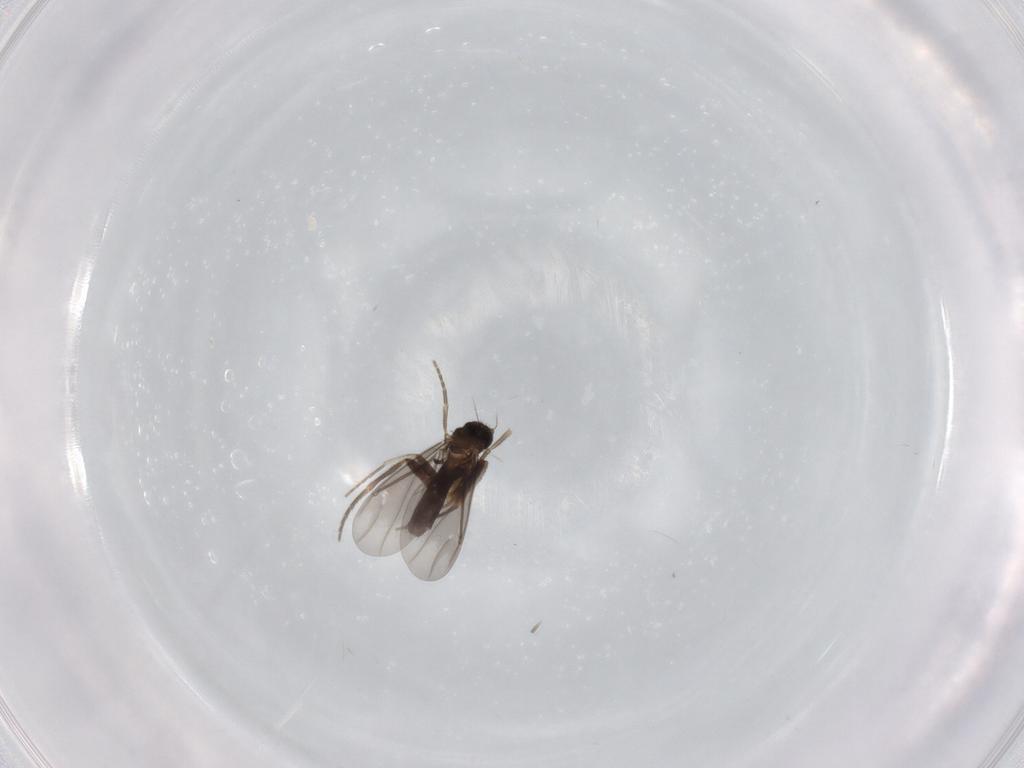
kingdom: Animalia
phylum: Arthropoda
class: Insecta
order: Diptera
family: Phoridae
